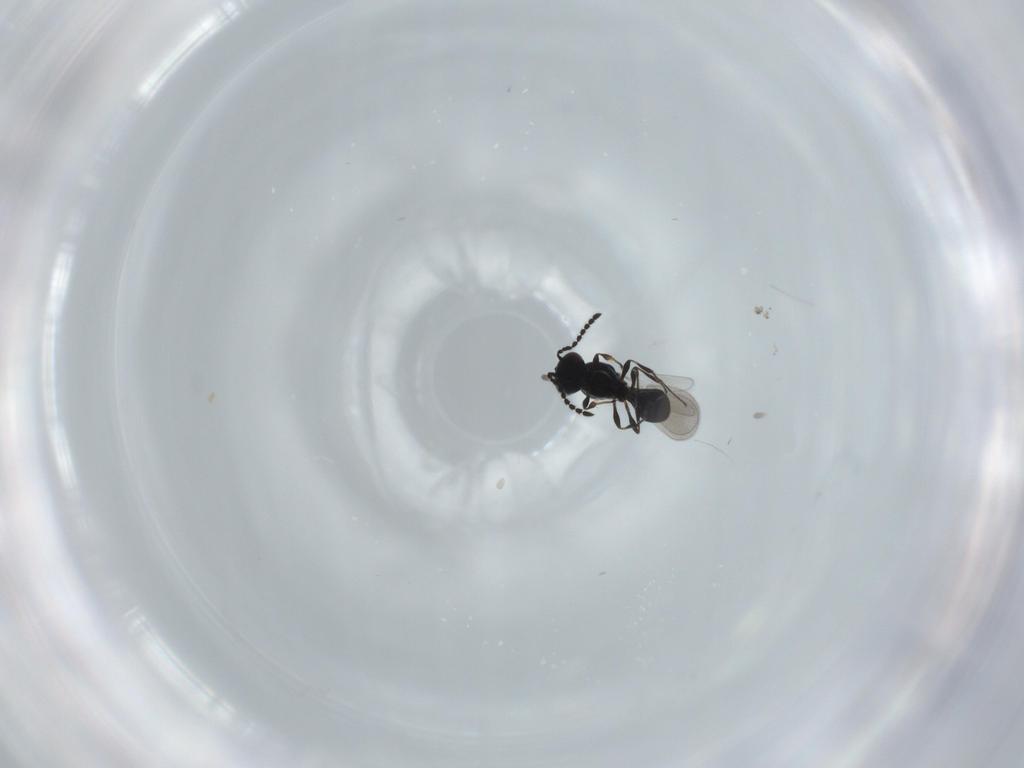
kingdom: Animalia
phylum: Arthropoda
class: Insecta
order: Hymenoptera
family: Platygastridae
